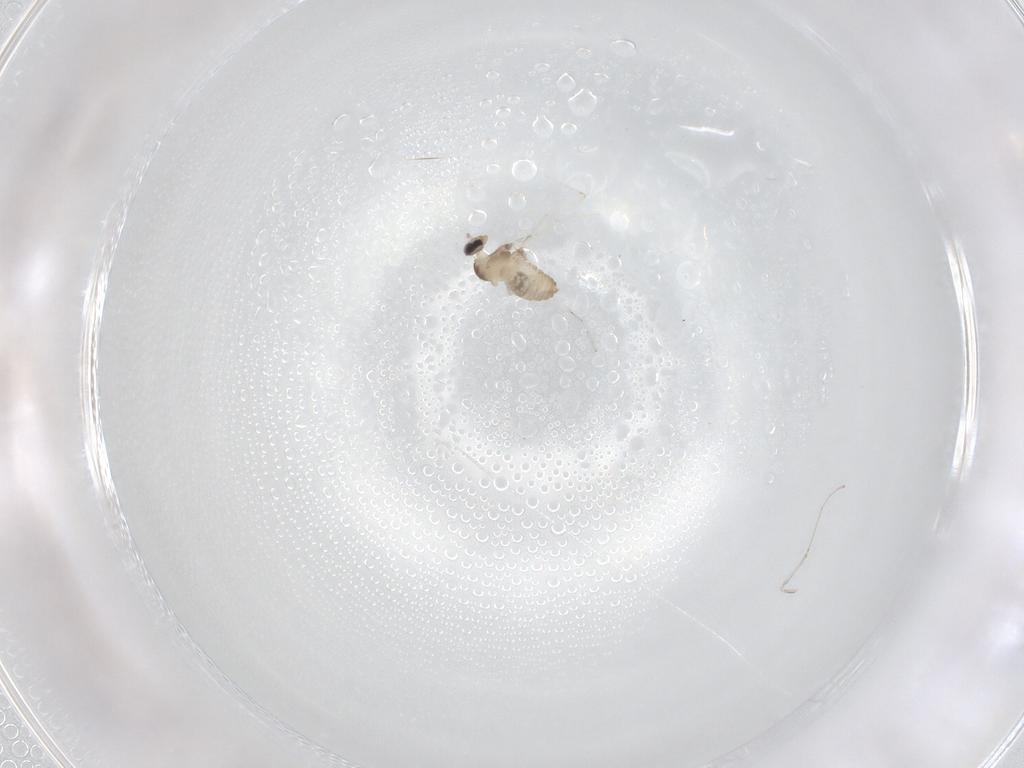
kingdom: Animalia
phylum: Arthropoda
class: Insecta
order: Diptera
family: Cecidomyiidae
